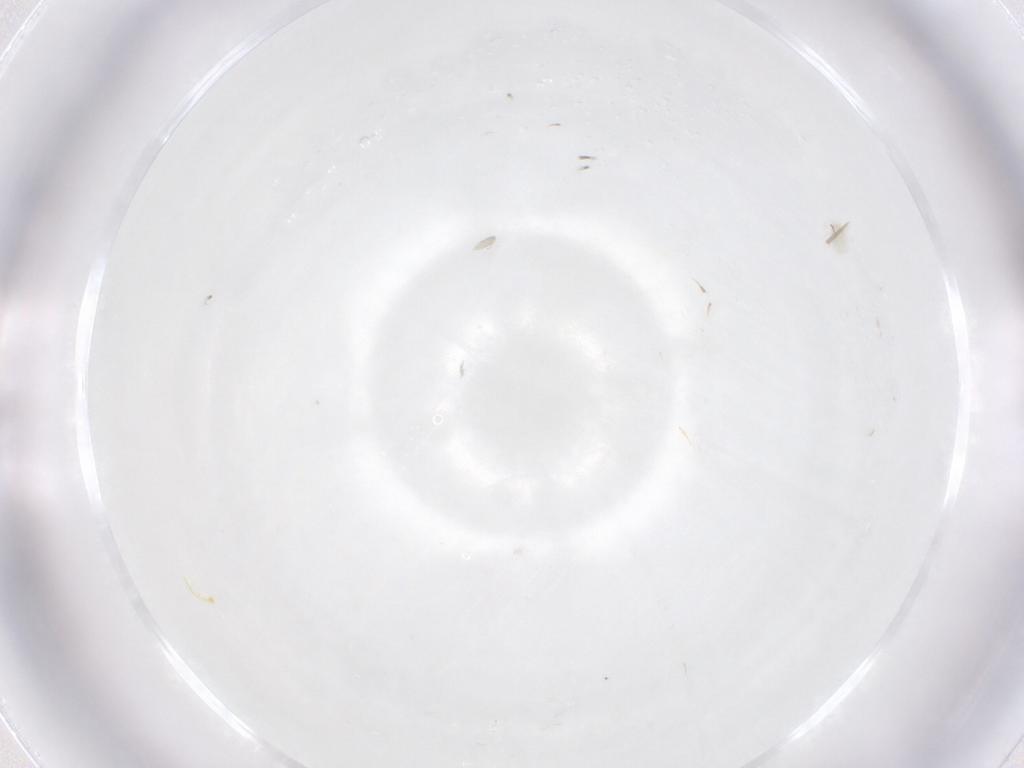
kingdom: Animalia
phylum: Arthropoda
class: Arachnida
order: Trombidiformes
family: Anystidae
